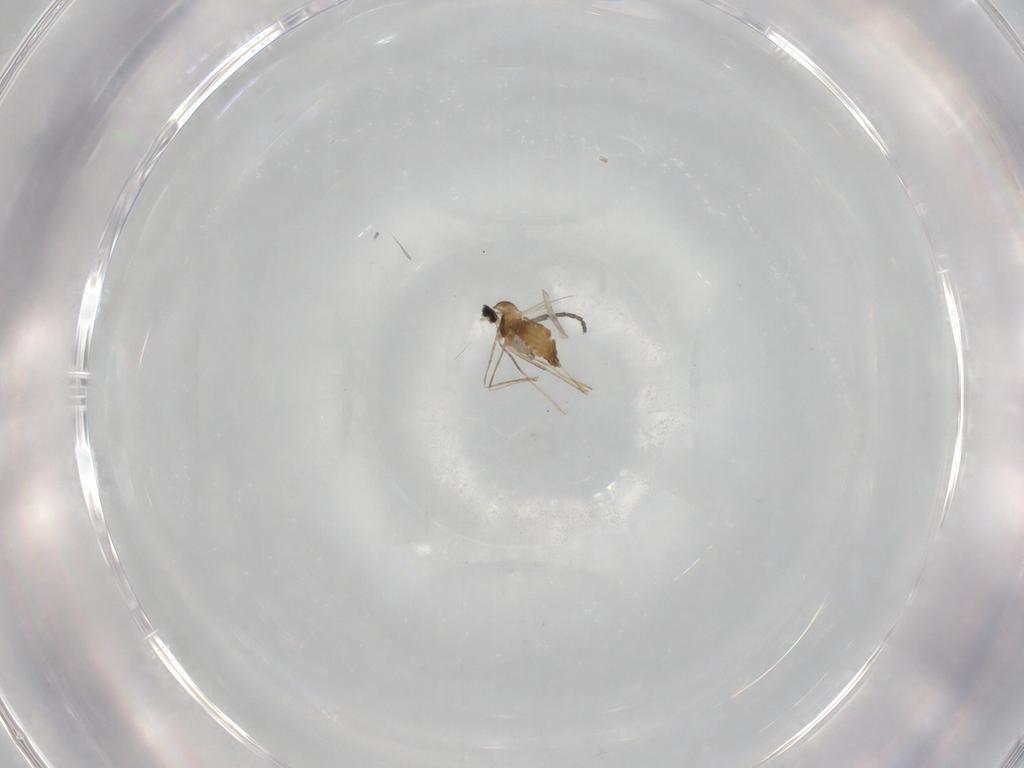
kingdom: Animalia
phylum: Arthropoda
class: Insecta
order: Diptera
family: Sciaridae
